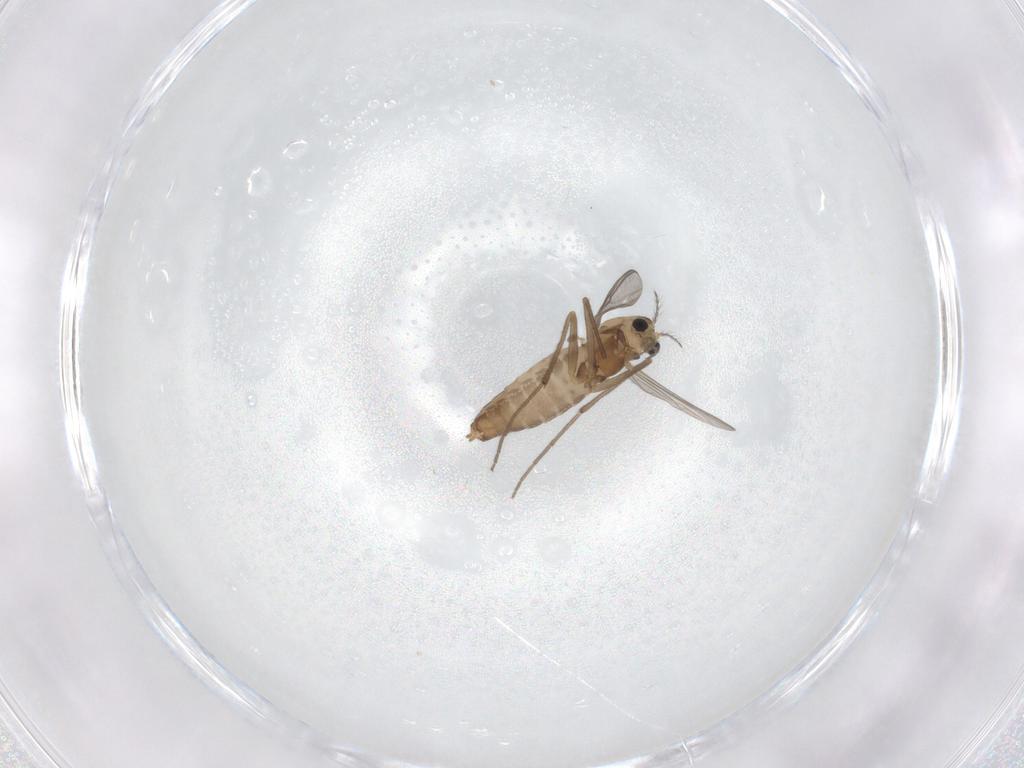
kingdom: Animalia
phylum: Arthropoda
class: Insecta
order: Diptera
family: Chironomidae
